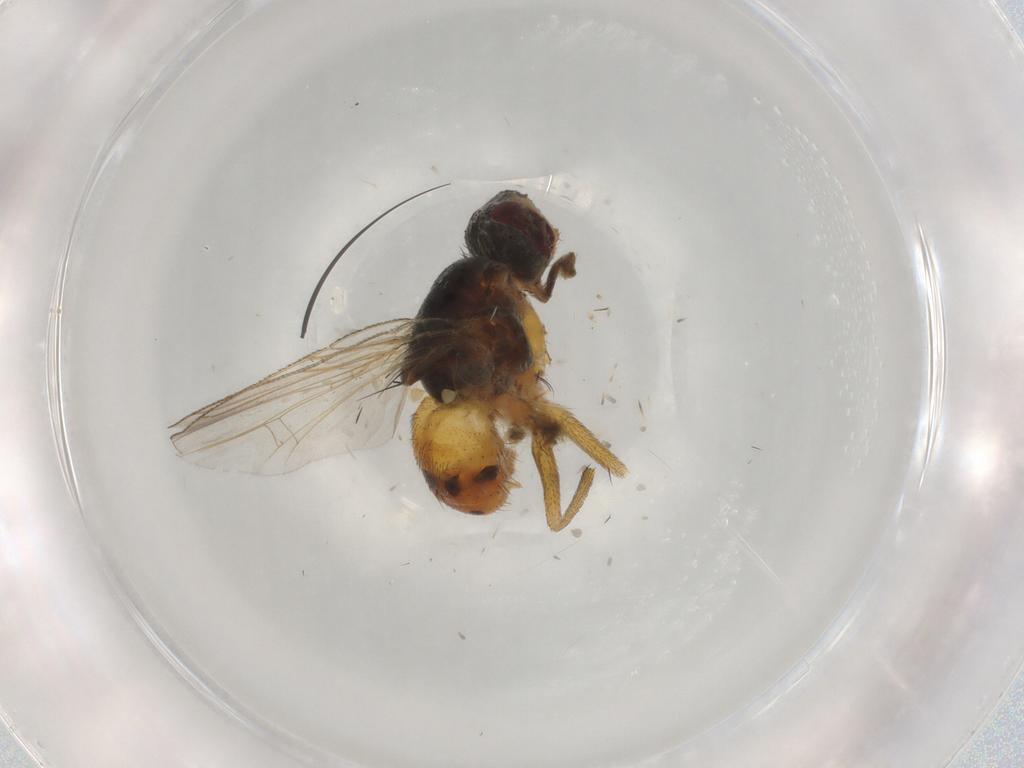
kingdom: Animalia
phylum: Arthropoda
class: Insecta
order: Diptera
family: Muscidae
